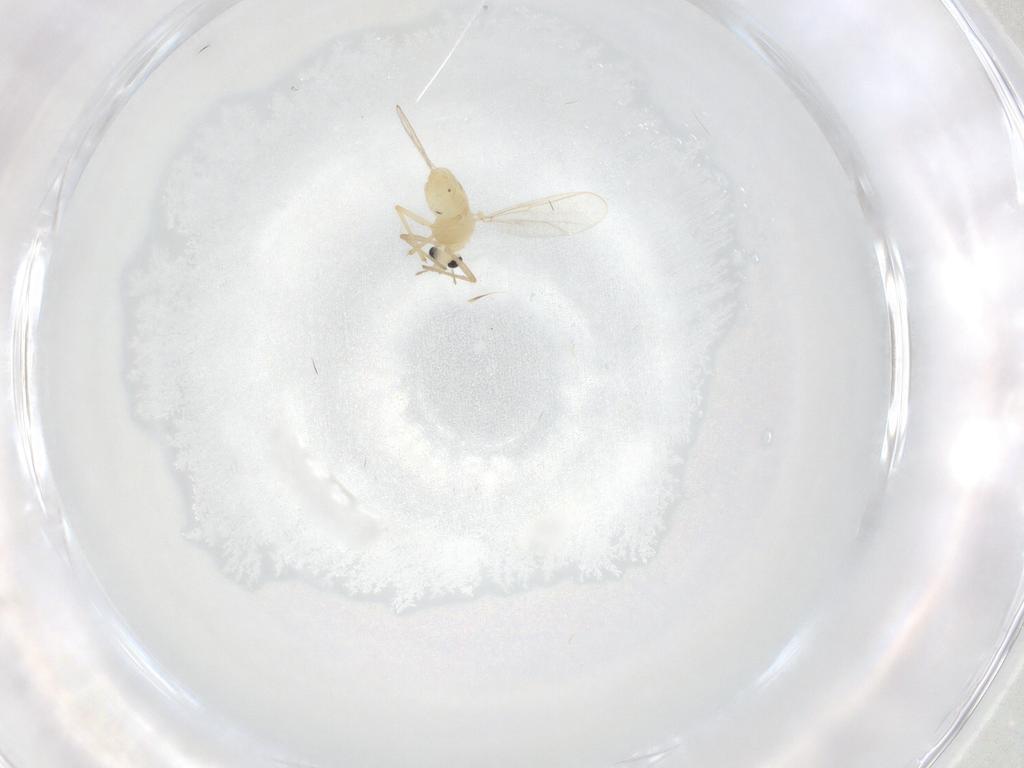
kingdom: Animalia
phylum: Arthropoda
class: Insecta
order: Diptera
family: Chironomidae
